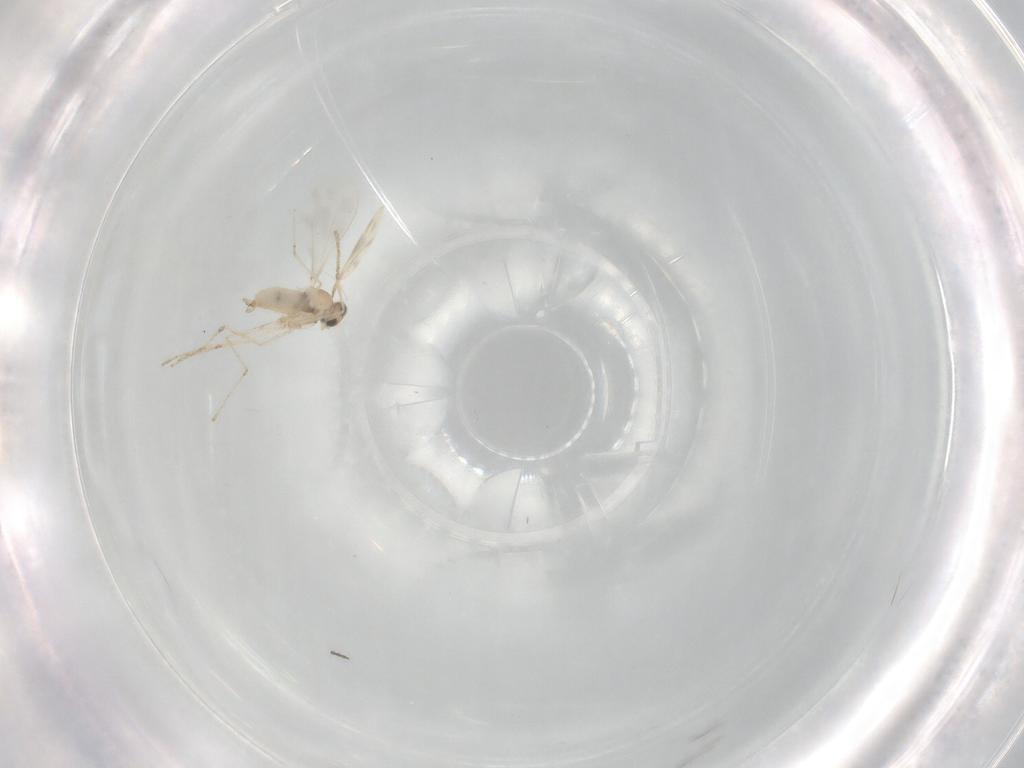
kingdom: Animalia
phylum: Arthropoda
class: Insecta
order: Diptera
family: Cecidomyiidae
